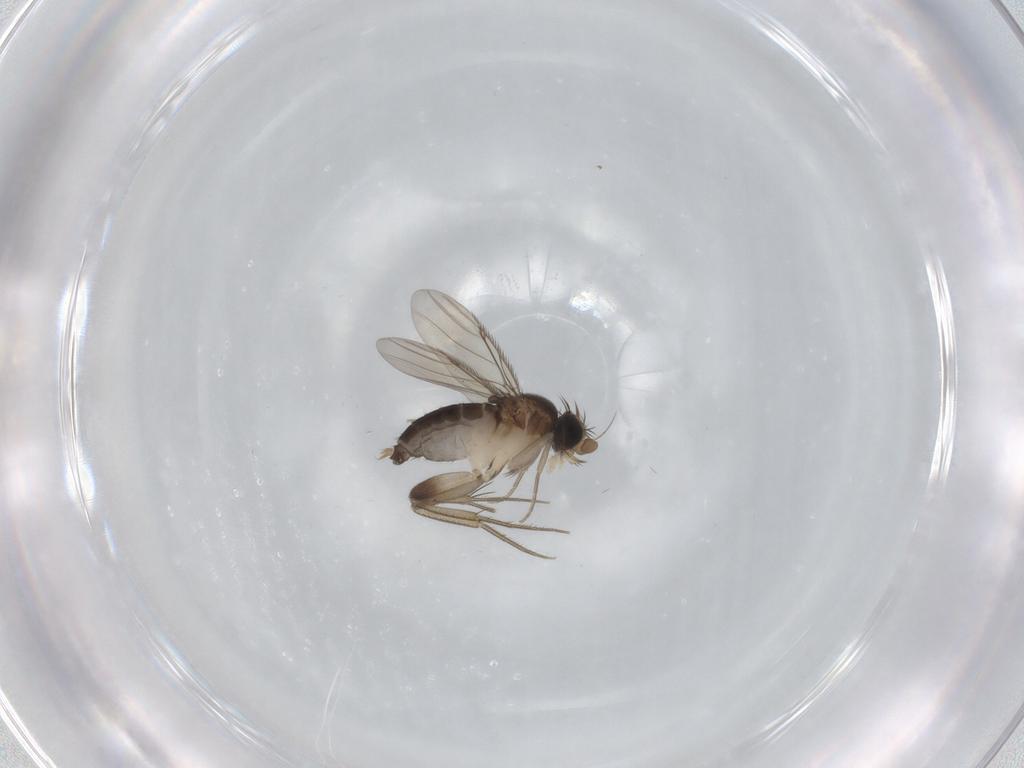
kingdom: Animalia
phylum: Arthropoda
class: Insecta
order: Diptera
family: Phoridae
